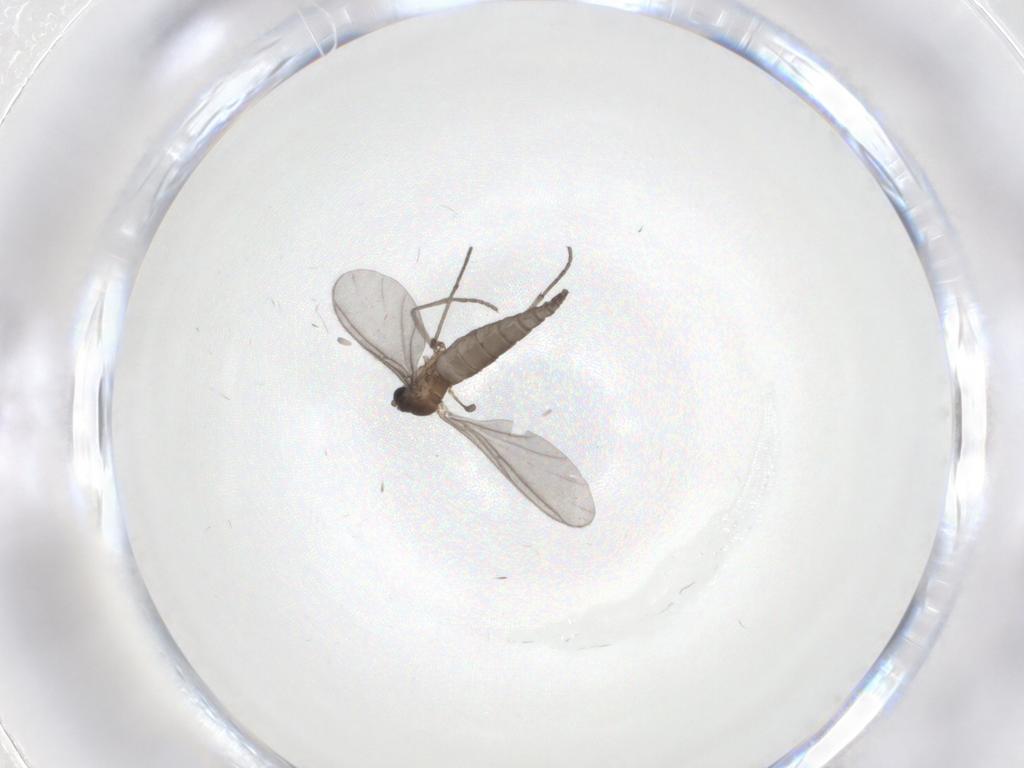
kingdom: Animalia
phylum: Arthropoda
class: Insecta
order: Diptera
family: Sciaridae
